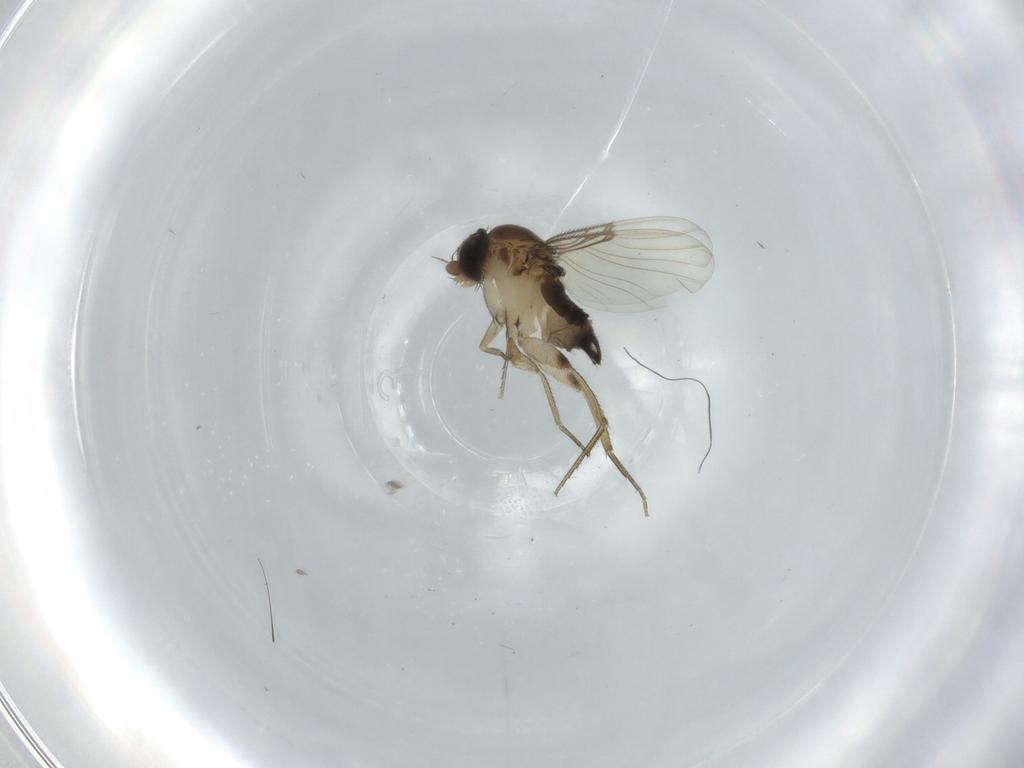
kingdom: Animalia
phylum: Arthropoda
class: Insecta
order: Diptera
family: Phoridae
